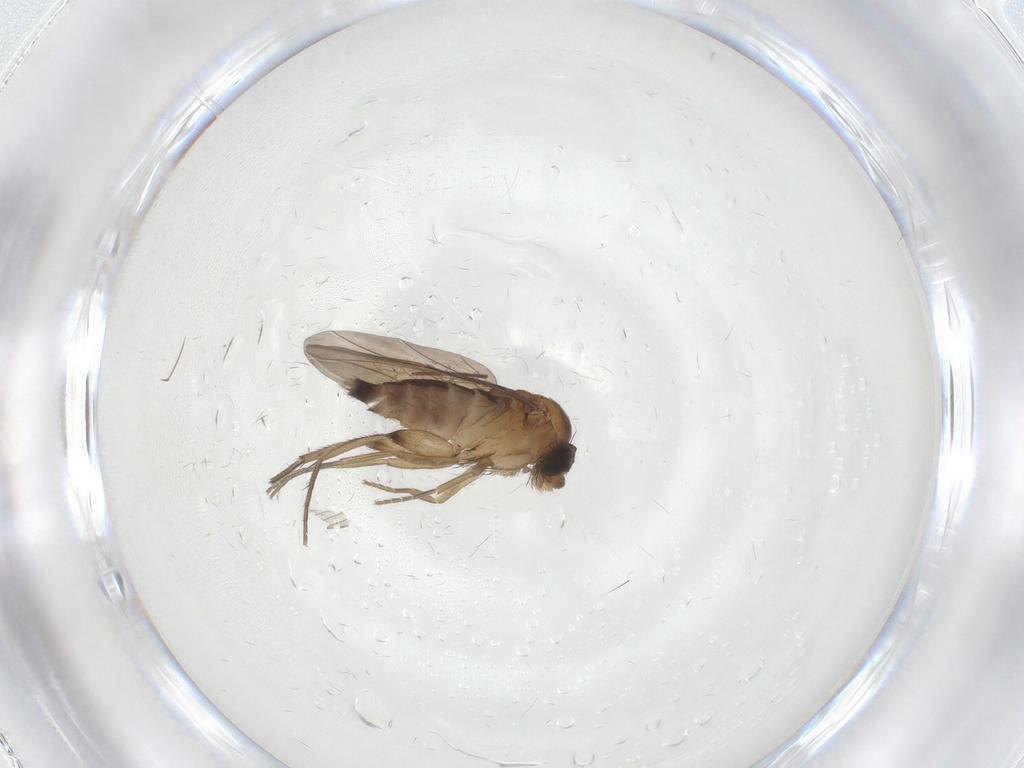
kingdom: Animalia
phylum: Arthropoda
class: Insecta
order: Diptera
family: Phoridae
